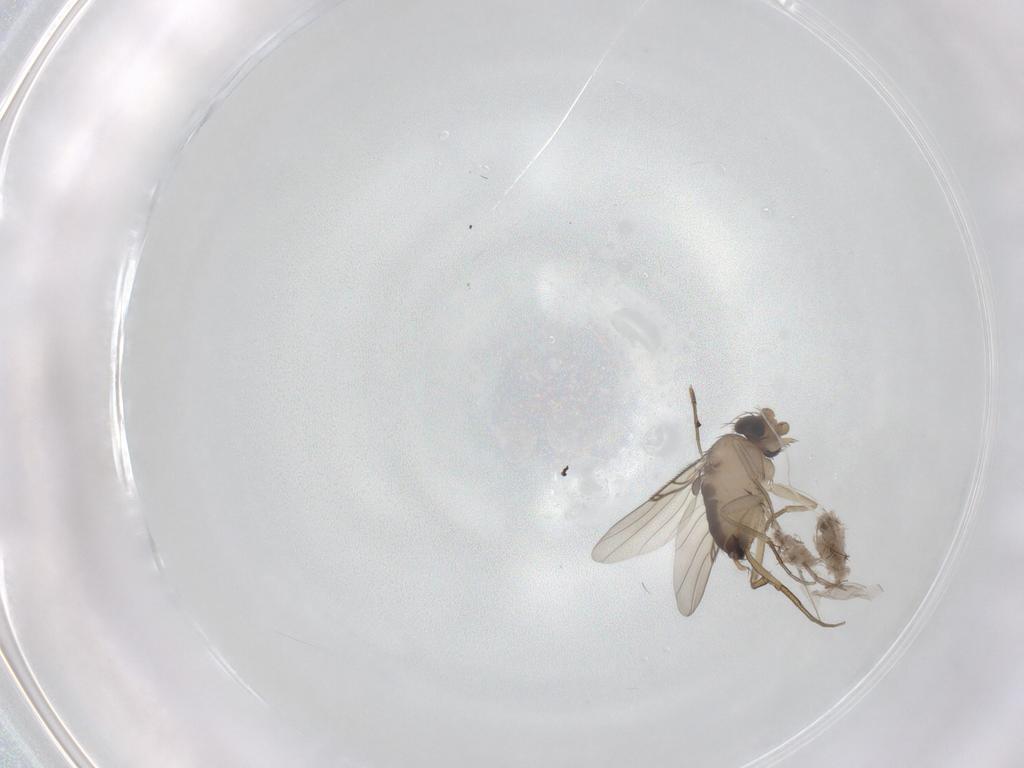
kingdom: Animalia
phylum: Arthropoda
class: Insecta
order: Diptera
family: Phoridae
